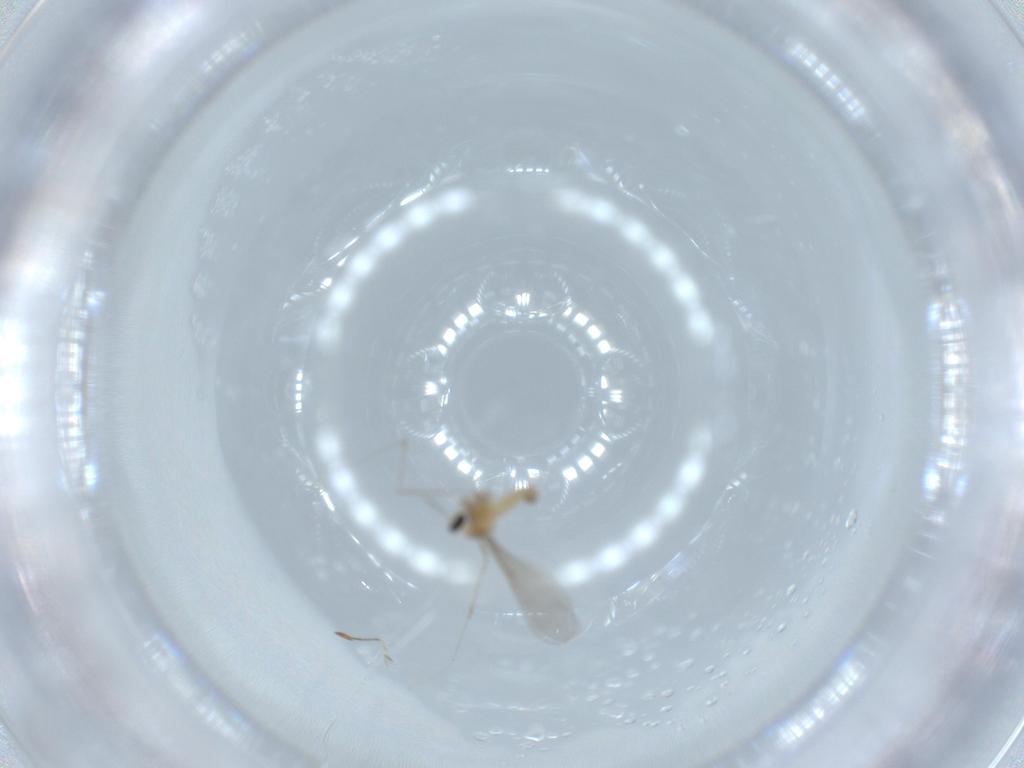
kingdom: Animalia
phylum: Arthropoda
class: Insecta
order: Diptera
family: Cecidomyiidae
